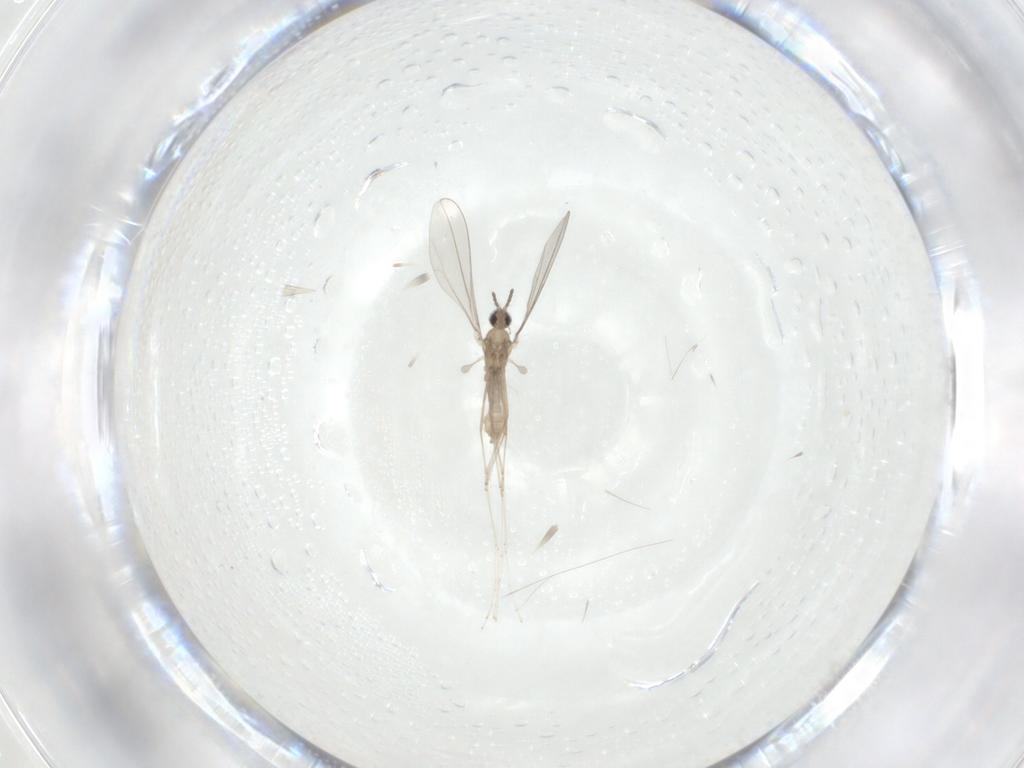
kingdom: Animalia
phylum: Arthropoda
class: Insecta
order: Diptera
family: Cecidomyiidae
